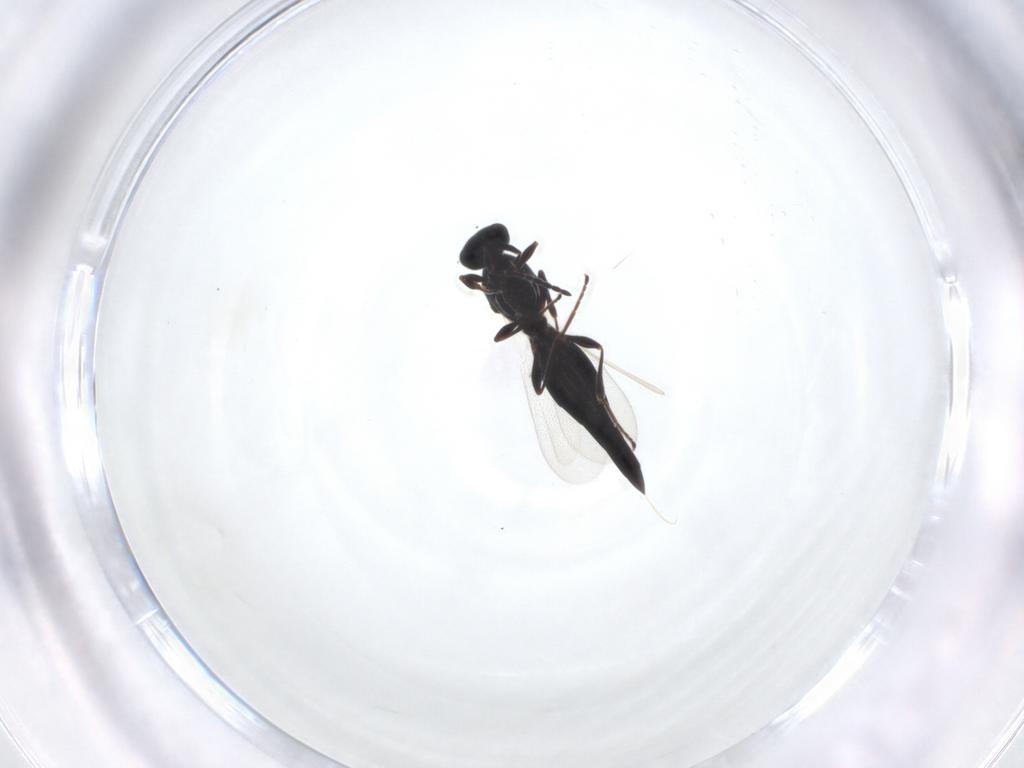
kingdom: Animalia
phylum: Arthropoda
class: Insecta
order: Hymenoptera
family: Platygastridae
